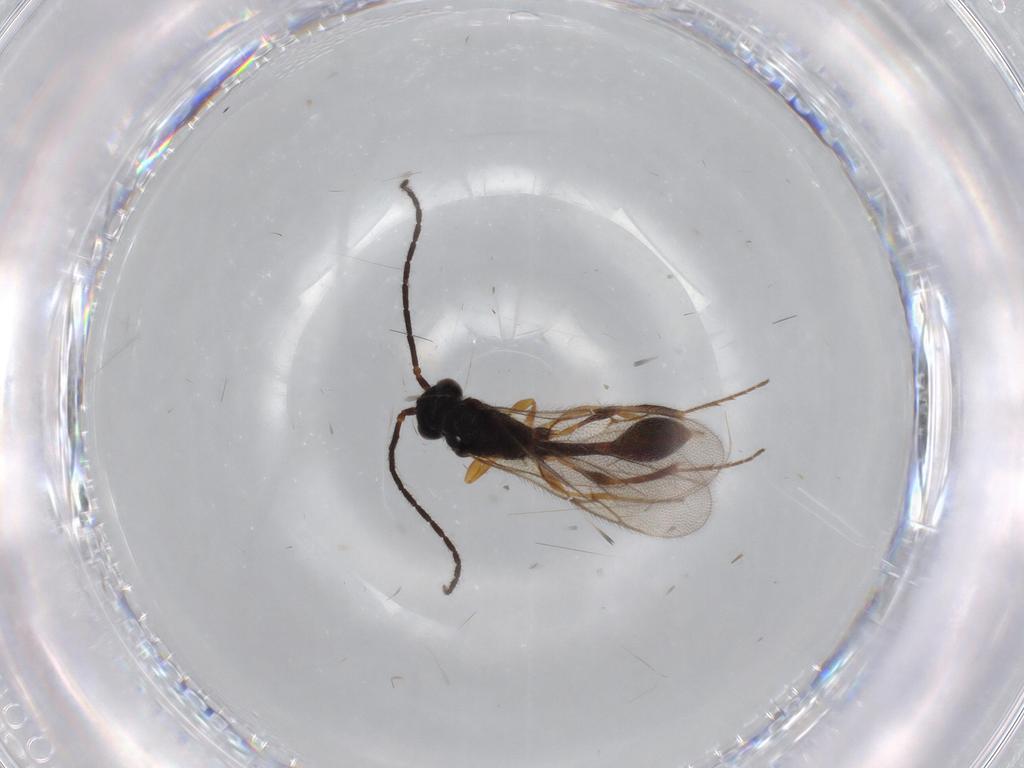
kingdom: Animalia
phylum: Arthropoda
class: Insecta
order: Hymenoptera
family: Diapriidae
